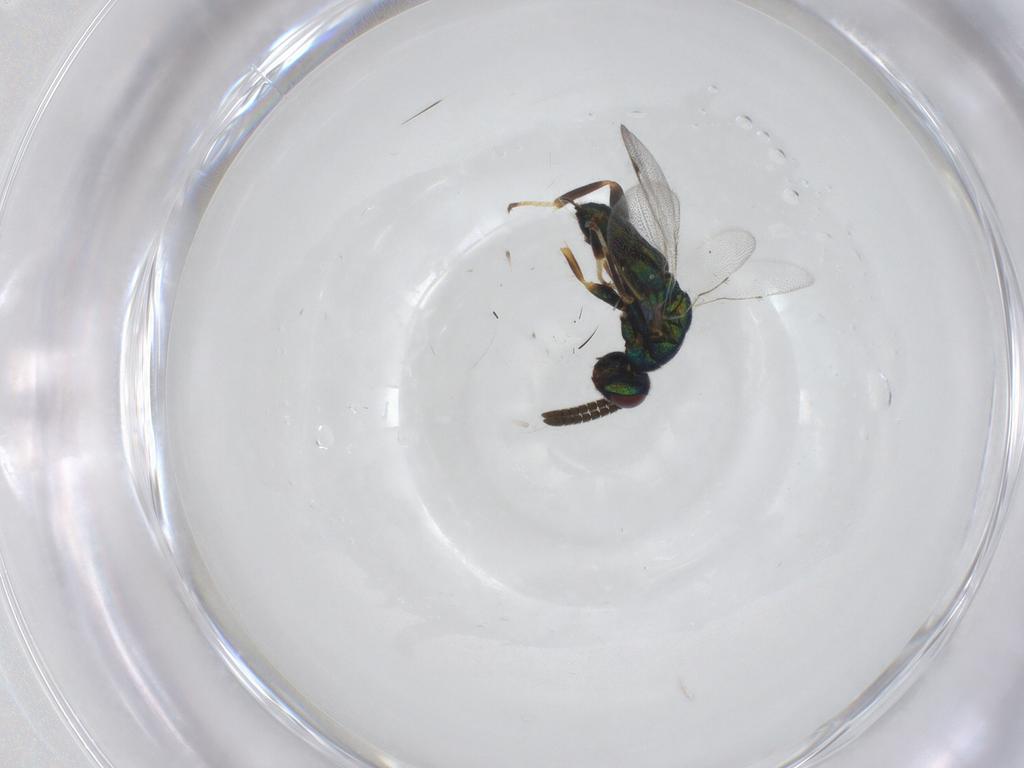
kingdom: Animalia
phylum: Arthropoda
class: Insecta
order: Hymenoptera
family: Torymidae
